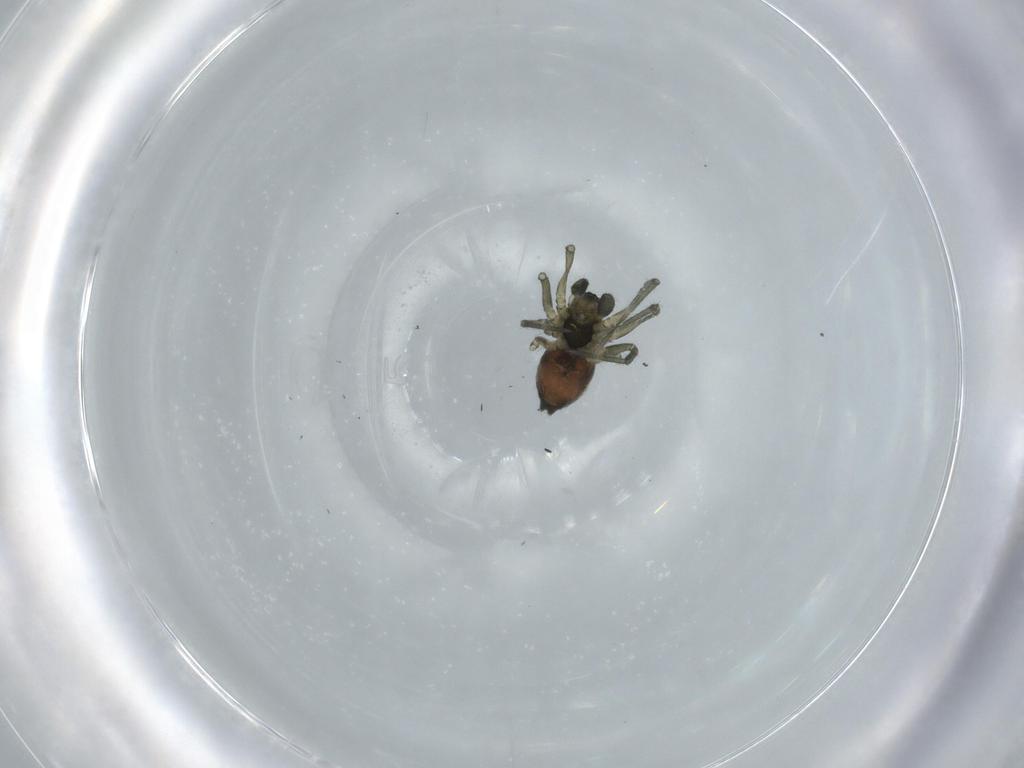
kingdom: Animalia
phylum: Arthropoda
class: Arachnida
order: Araneae
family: Linyphiidae
